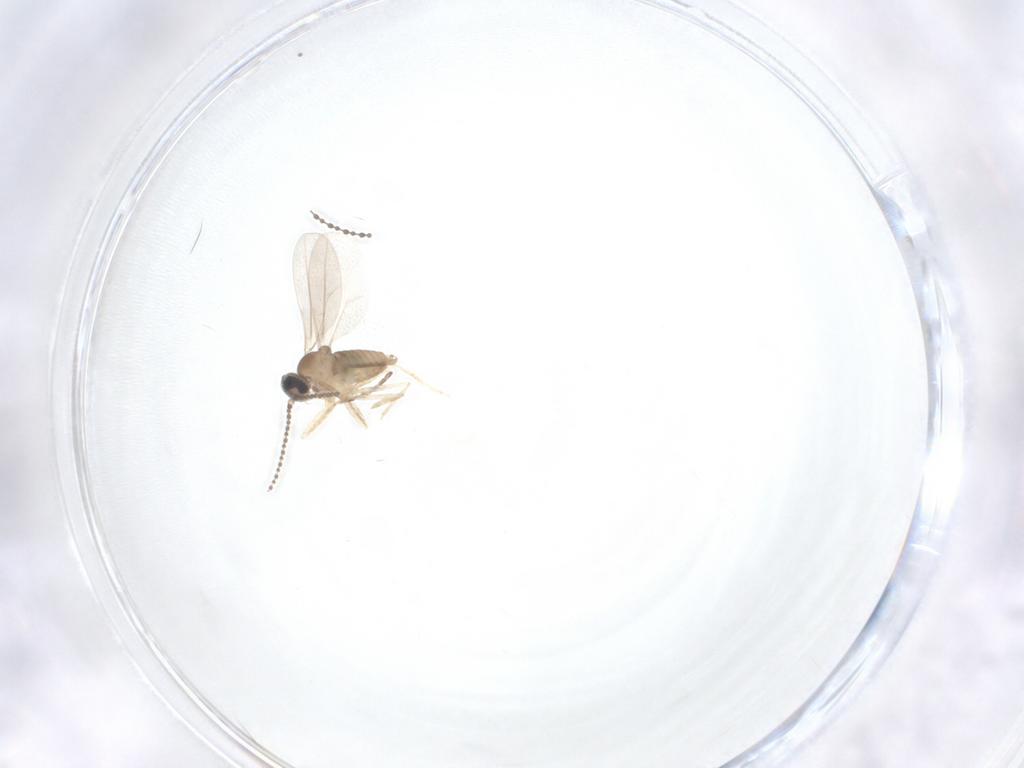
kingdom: Animalia
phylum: Arthropoda
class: Insecta
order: Diptera
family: Cecidomyiidae
